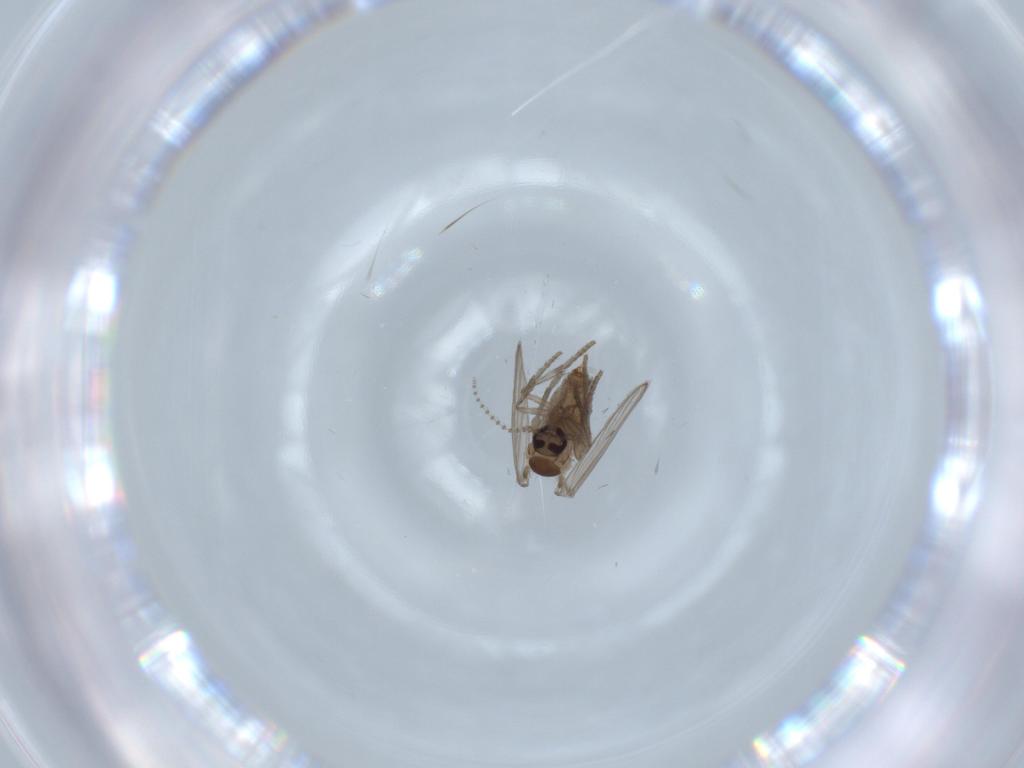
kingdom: Animalia
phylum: Arthropoda
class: Insecta
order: Diptera
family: Psychodidae
